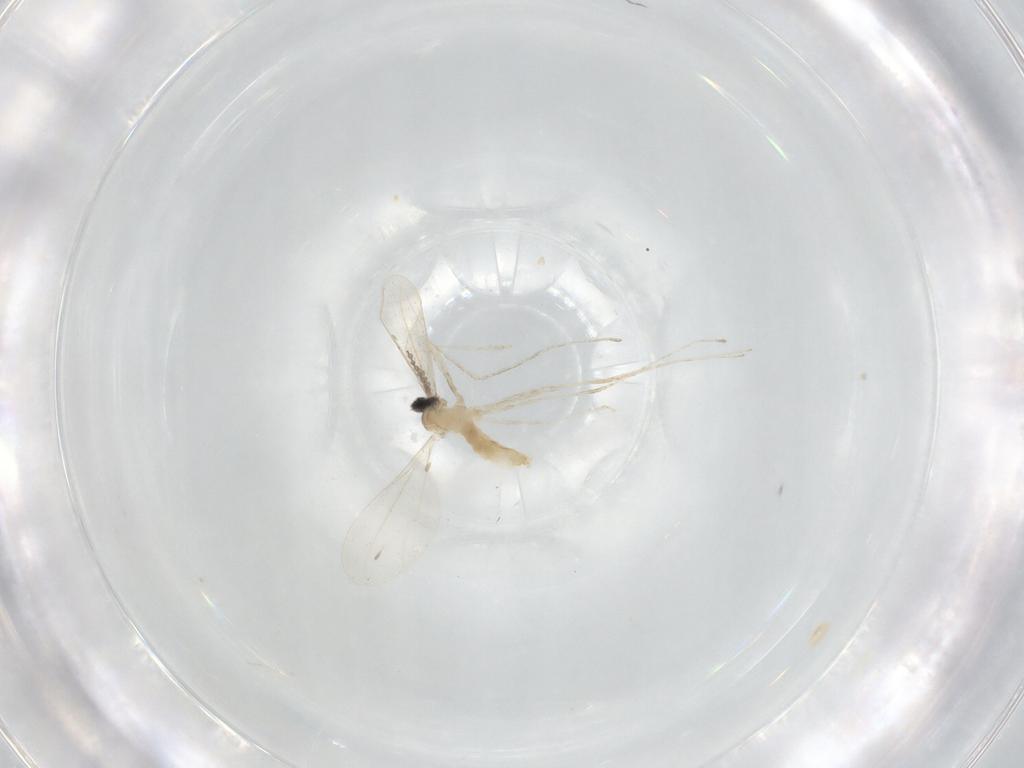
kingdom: Animalia
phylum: Arthropoda
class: Insecta
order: Diptera
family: Cecidomyiidae
